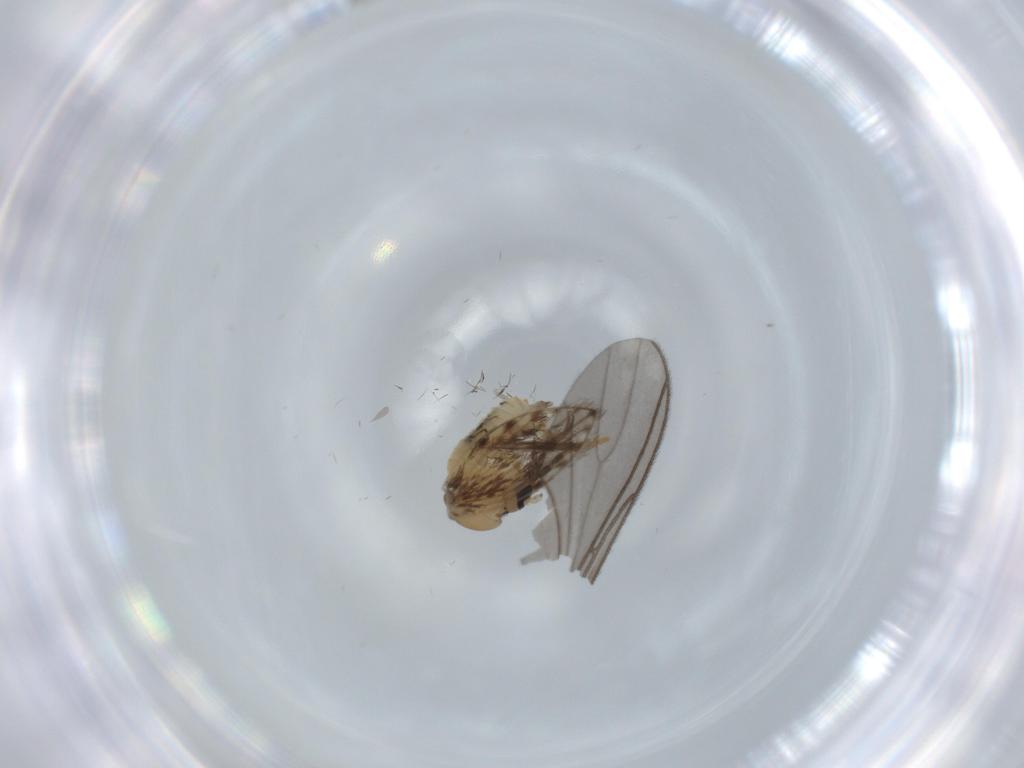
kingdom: Animalia
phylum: Arthropoda
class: Insecta
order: Diptera
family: Psychodidae
